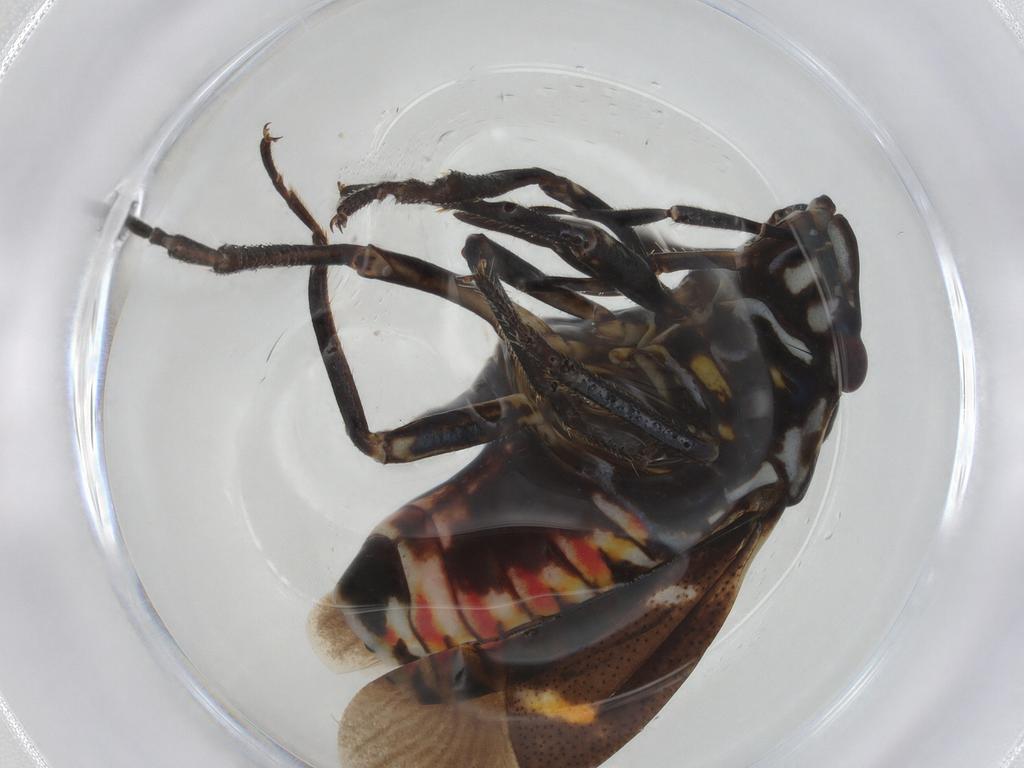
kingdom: Animalia
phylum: Arthropoda
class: Insecta
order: Hemiptera
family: Pentatomidae
